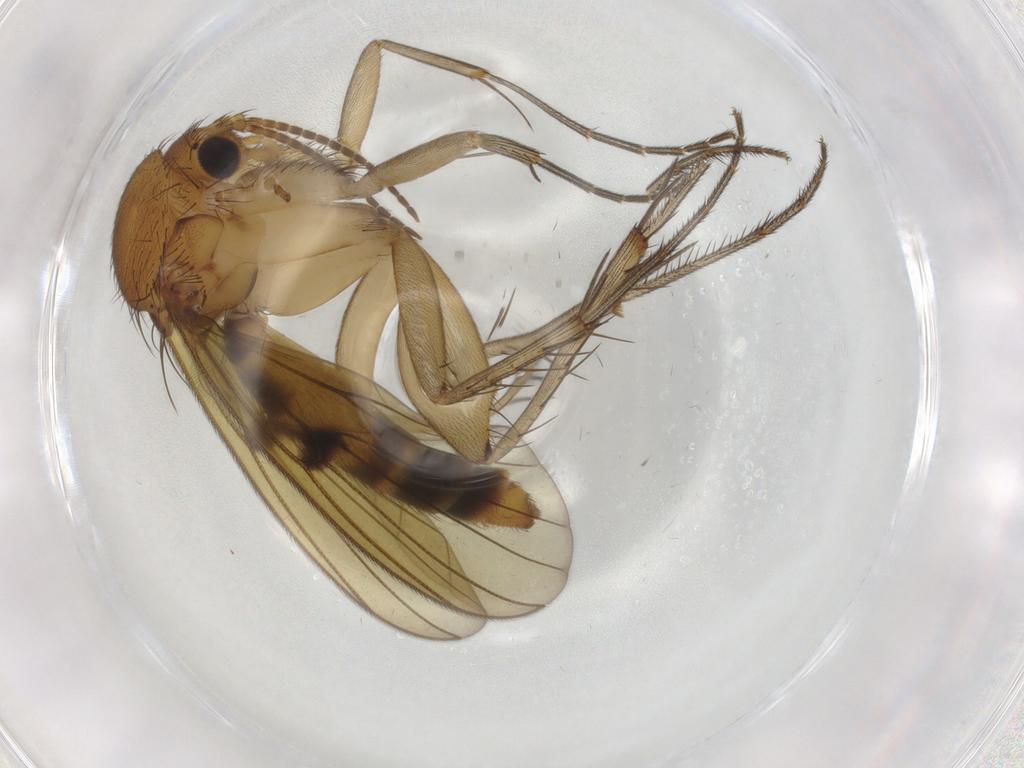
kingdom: Animalia
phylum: Arthropoda
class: Insecta
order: Diptera
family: Mycetophilidae
